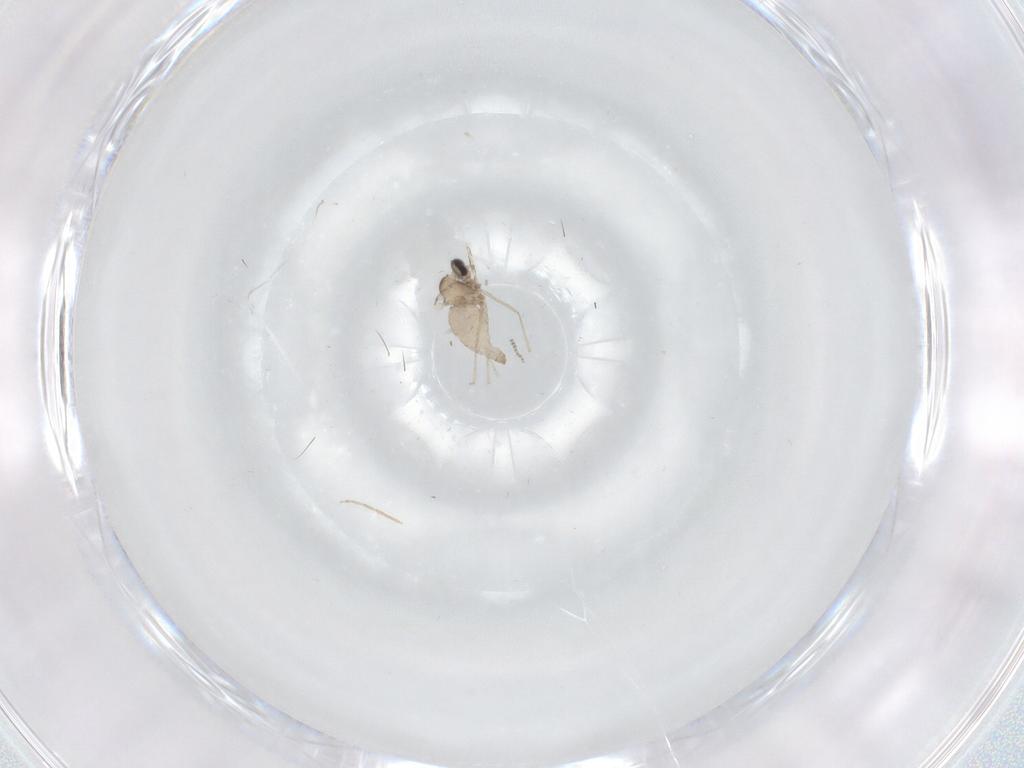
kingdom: Animalia
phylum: Arthropoda
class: Insecta
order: Diptera
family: Cecidomyiidae
